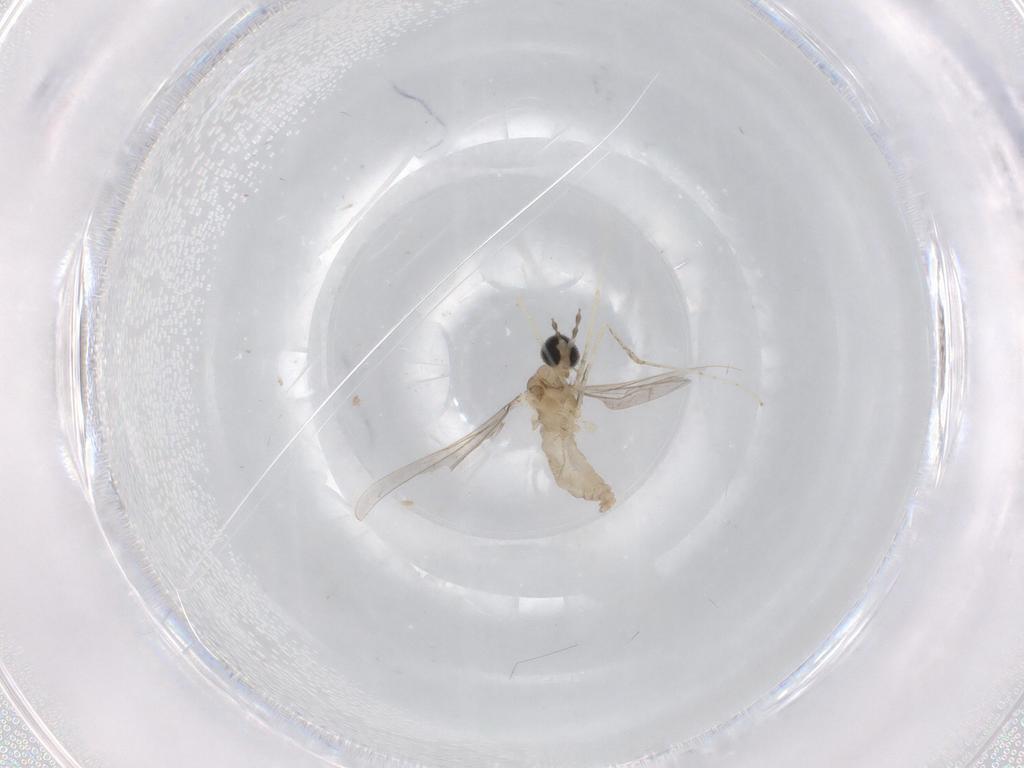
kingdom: Animalia
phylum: Arthropoda
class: Insecta
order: Diptera
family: Cecidomyiidae
